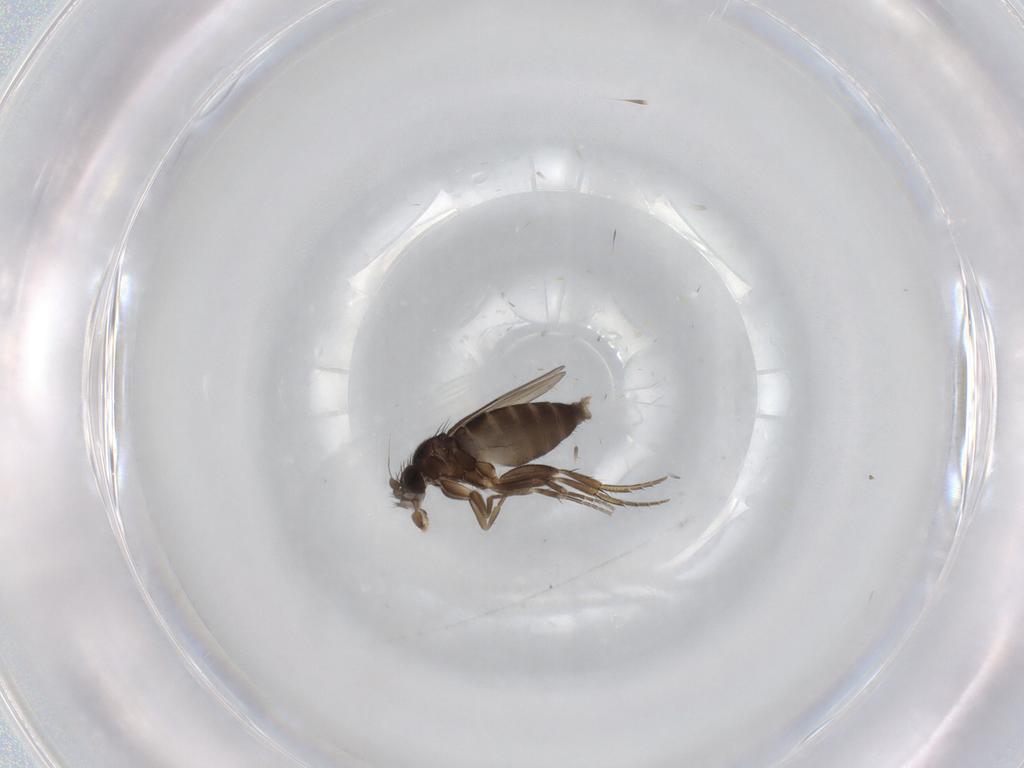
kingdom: Animalia
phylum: Arthropoda
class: Insecta
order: Diptera
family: Phoridae
